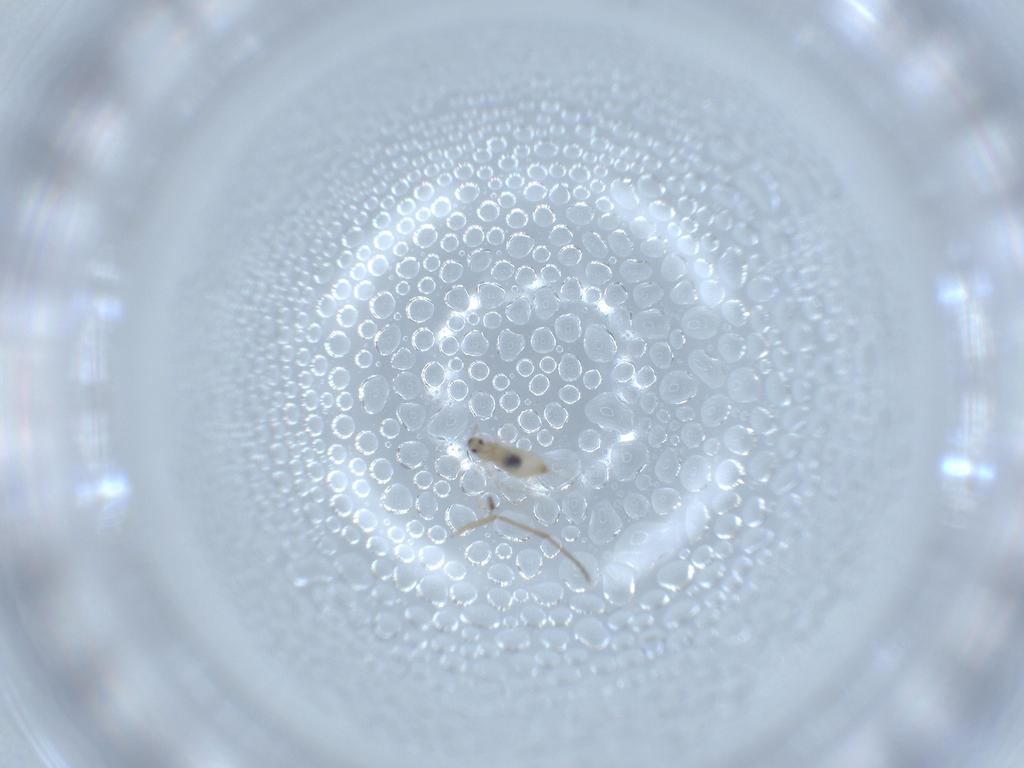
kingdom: Animalia
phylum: Arthropoda
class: Insecta
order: Diptera
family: Cecidomyiidae
